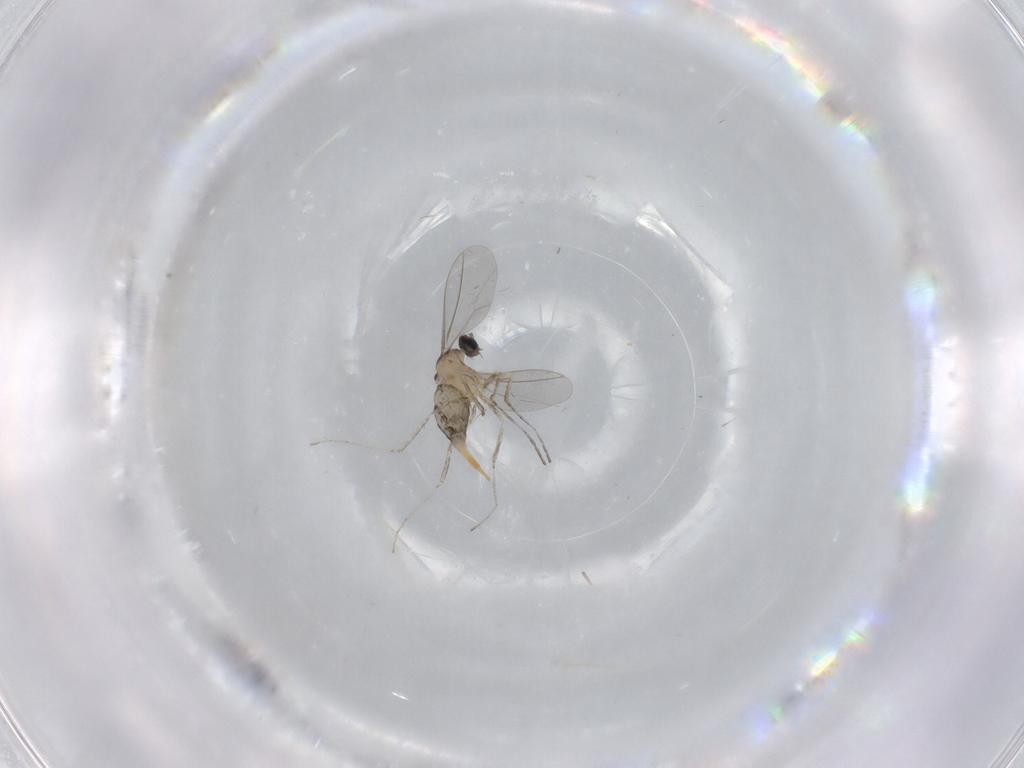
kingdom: Animalia
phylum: Arthropoda
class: Insecta
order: Diptera
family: Cecidomyiidae
